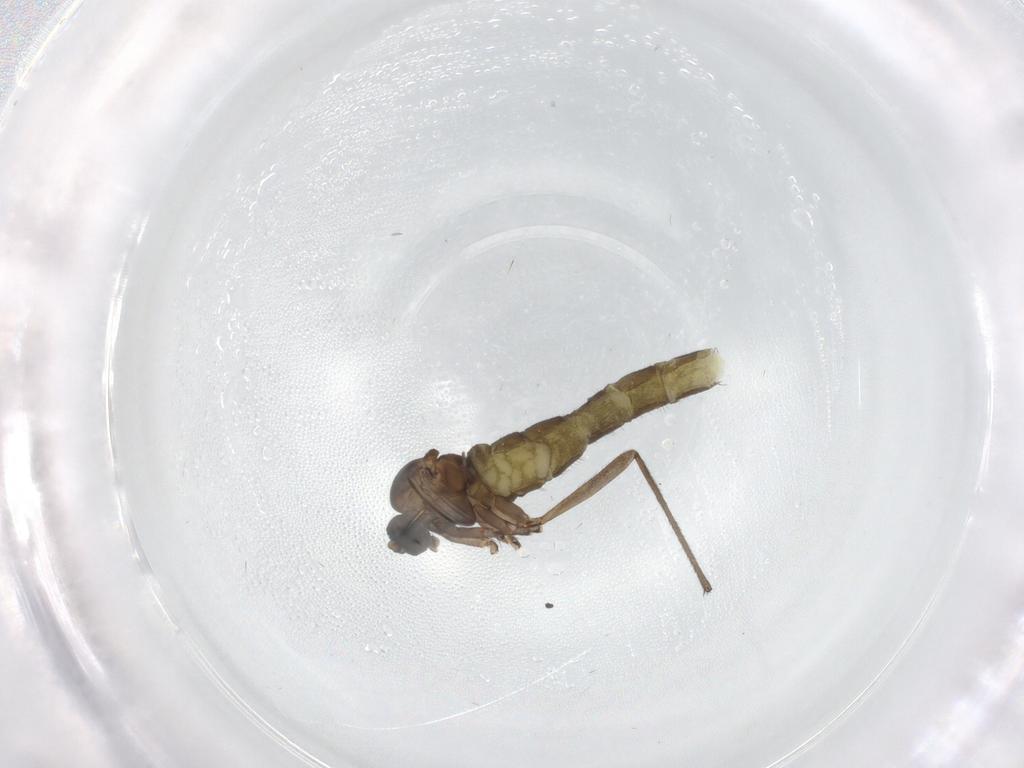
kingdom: Animalia
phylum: Arthropoda
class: Insecta
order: Diptera
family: Sciaridae
